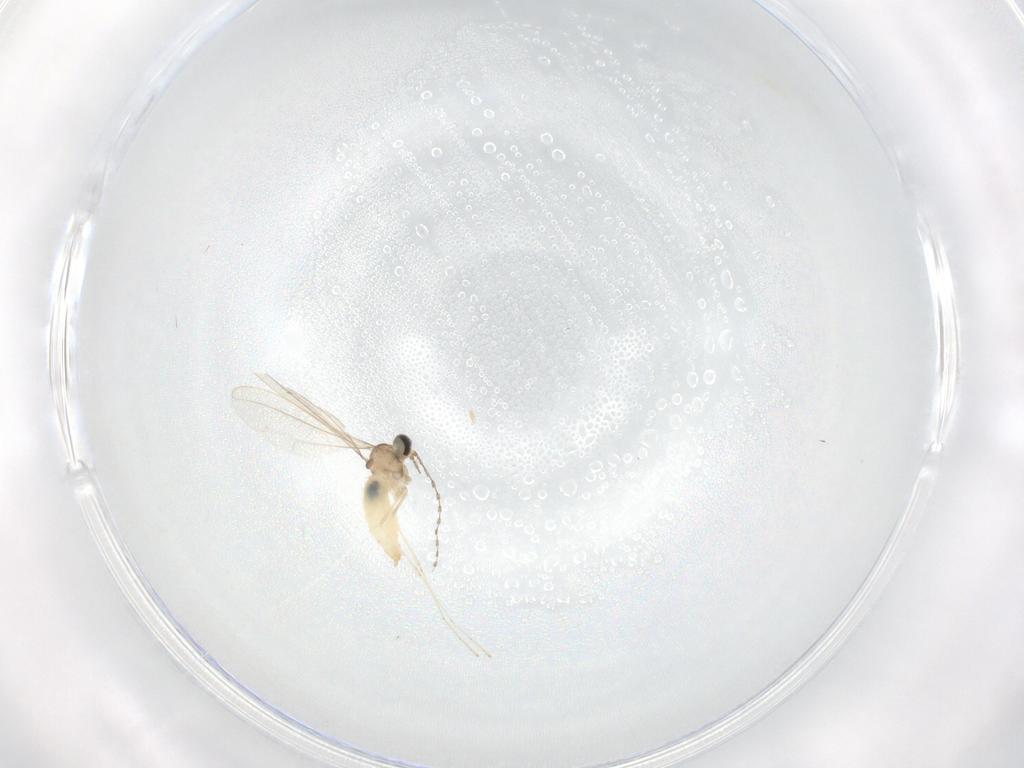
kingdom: Animalia
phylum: Arthropoda
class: Insecta
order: Diptera
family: Cecidomyiidae
